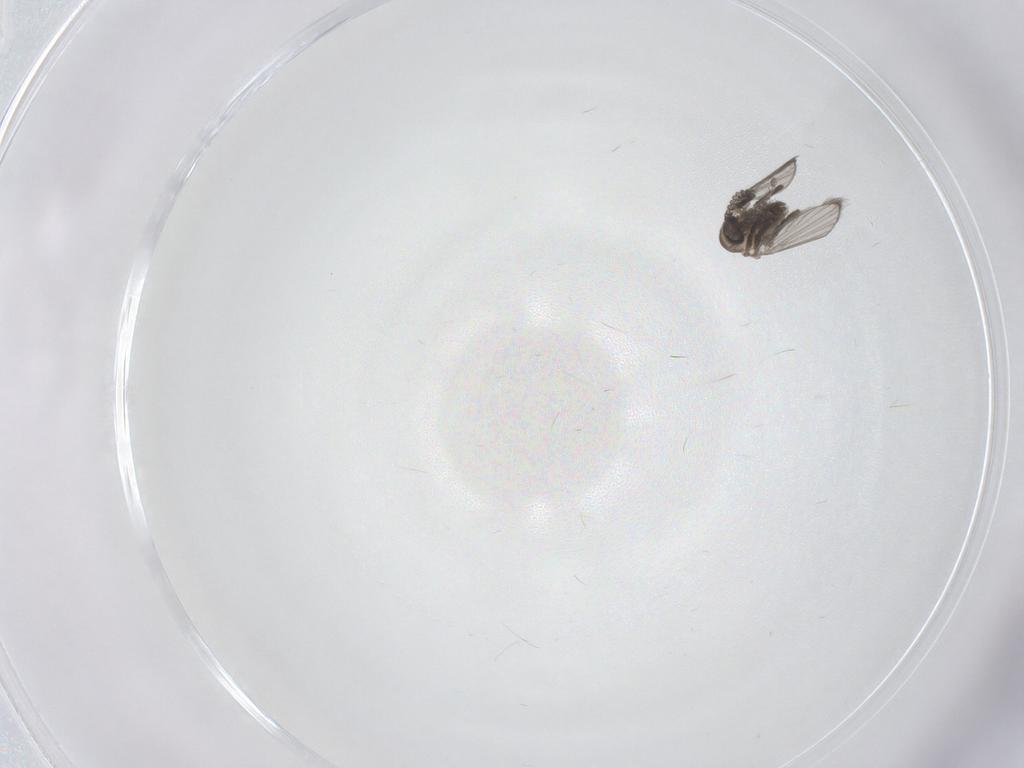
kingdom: Animalia
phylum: Arthropoda
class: Insecta
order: Diptera
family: Psychodidae
